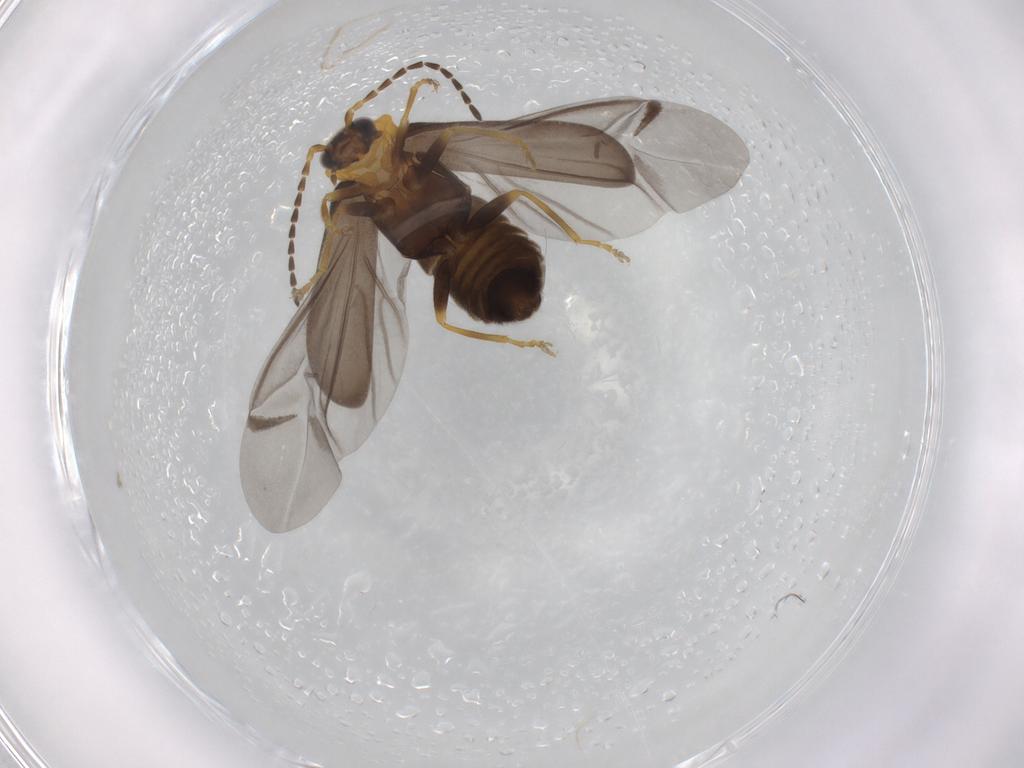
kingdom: Animalia
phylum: Arthropoda
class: Insecta
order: Coleoptera
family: Cantharidae
